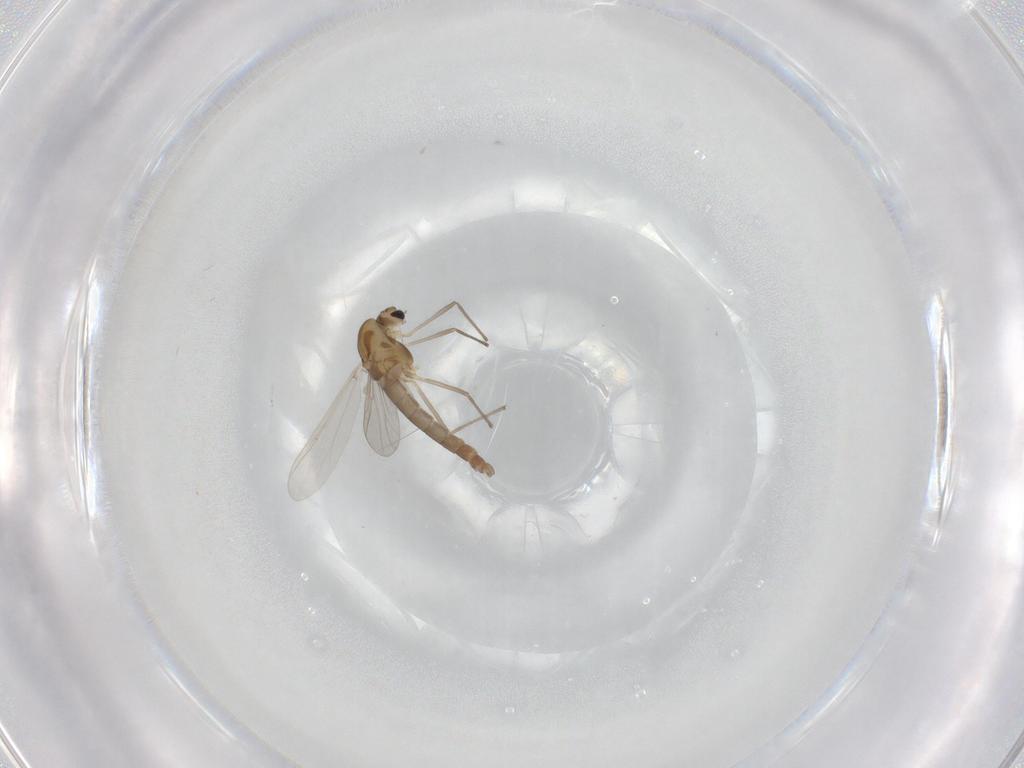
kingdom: Animalia
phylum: Arthropoda
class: Insecta
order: Diptera
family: Chironomidae
